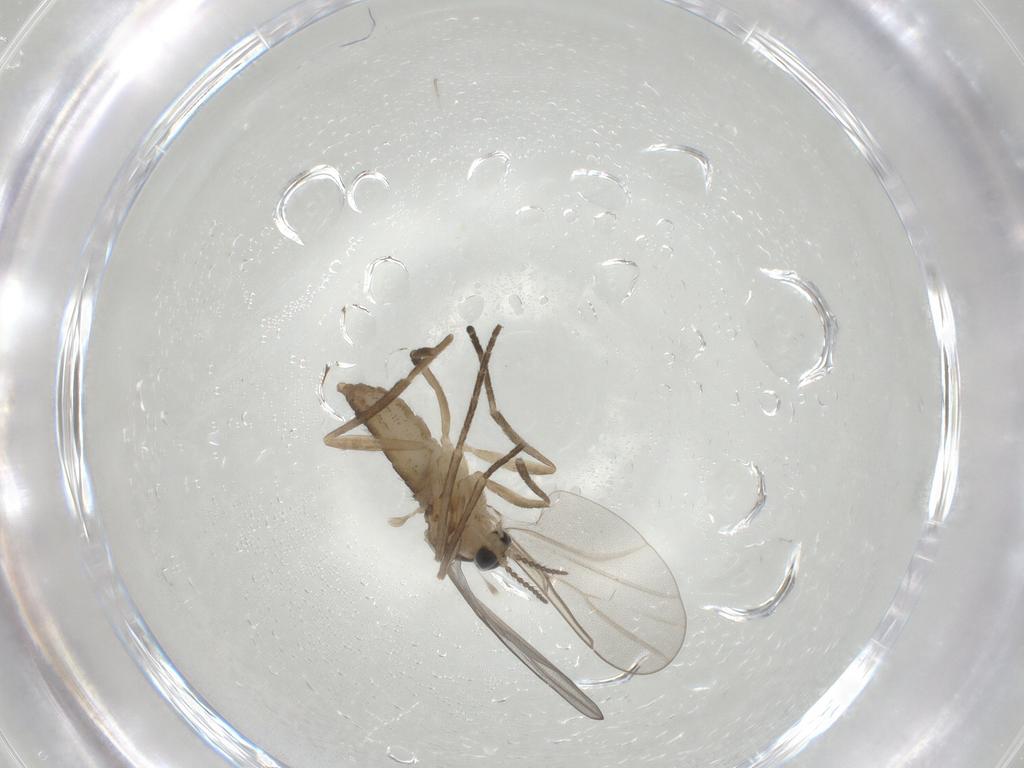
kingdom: Animalia
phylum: Arthropoda
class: Insecta
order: Diptera
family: Cecidomyiidae
